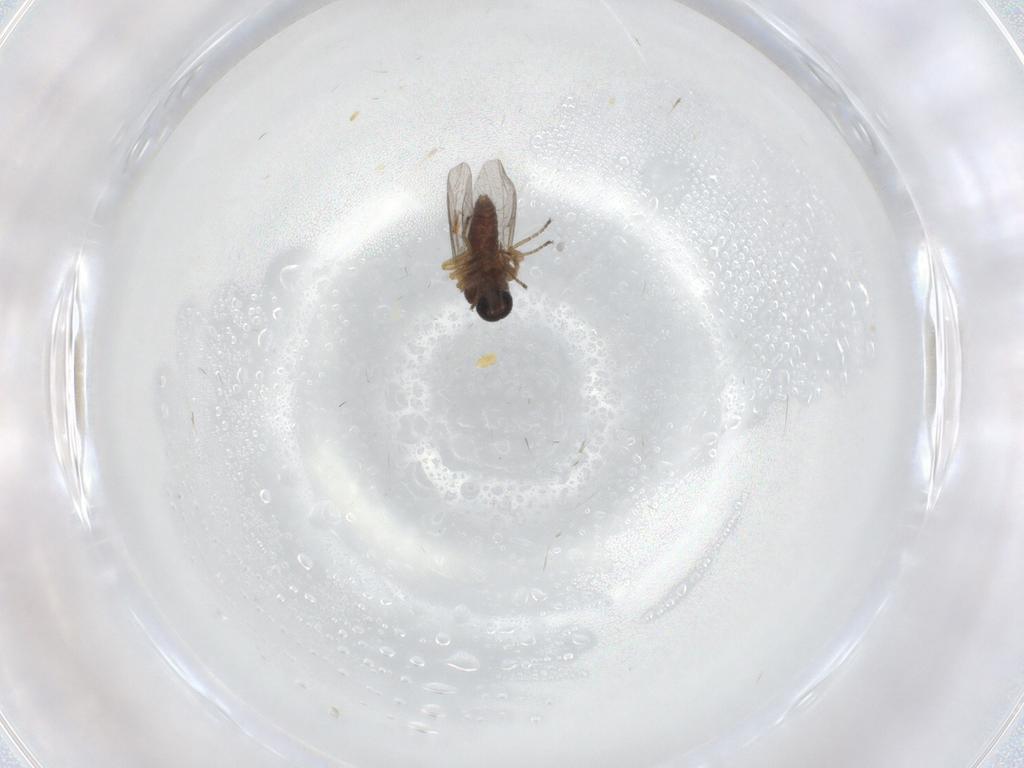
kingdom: Animalia
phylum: Arthropoda
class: Insecta
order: Diptera
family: Ceratopogonidae
